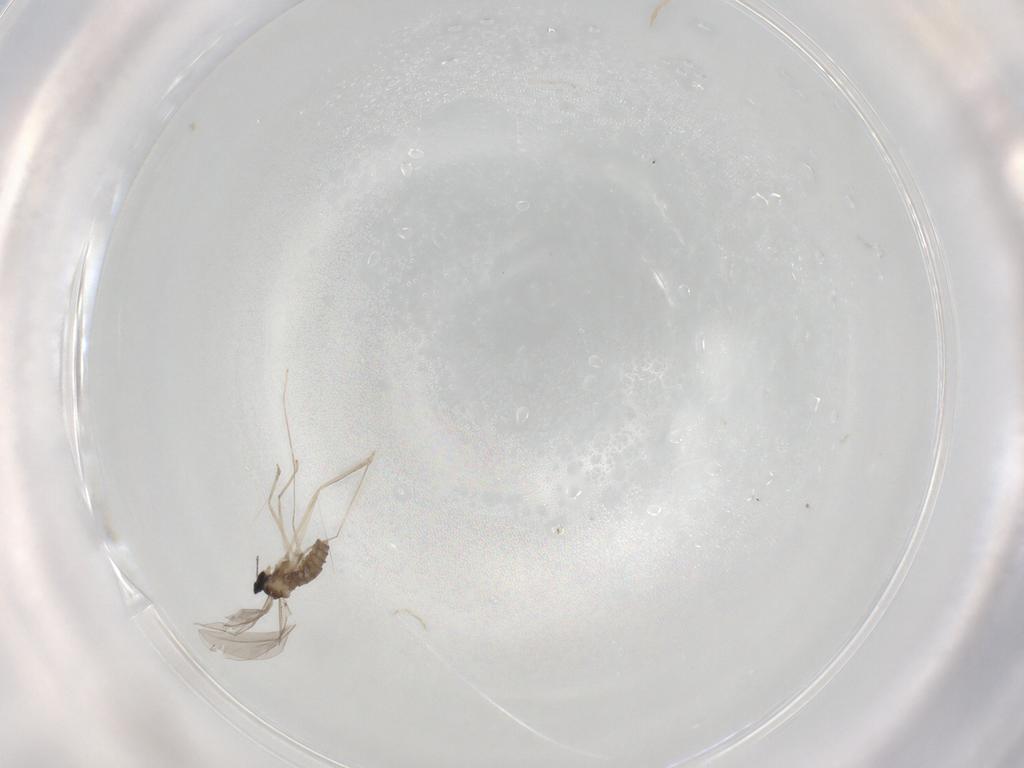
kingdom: Animalia
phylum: Arthropoda
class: Insecta
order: Diptera
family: Cecidomyiidae
